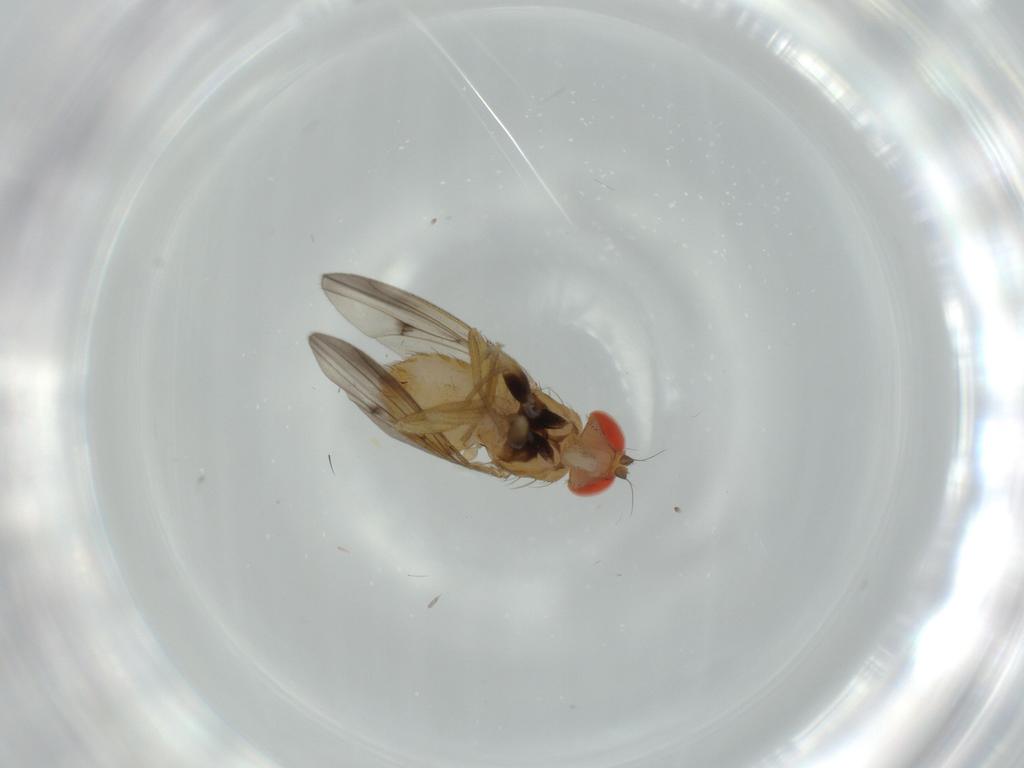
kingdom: Animalia
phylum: Arthropoda
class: Insecta
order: Diptera
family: Drosophilidae
